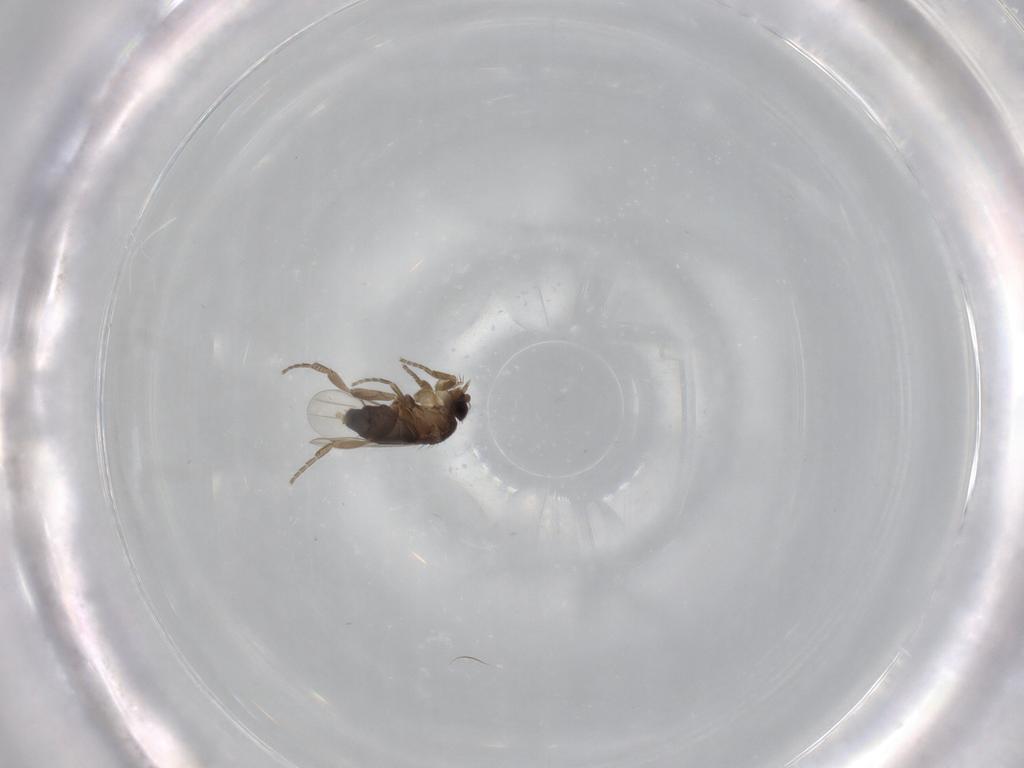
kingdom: Animalia
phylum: Arthropoda
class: Insecta
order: Diptera
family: Phoridae
